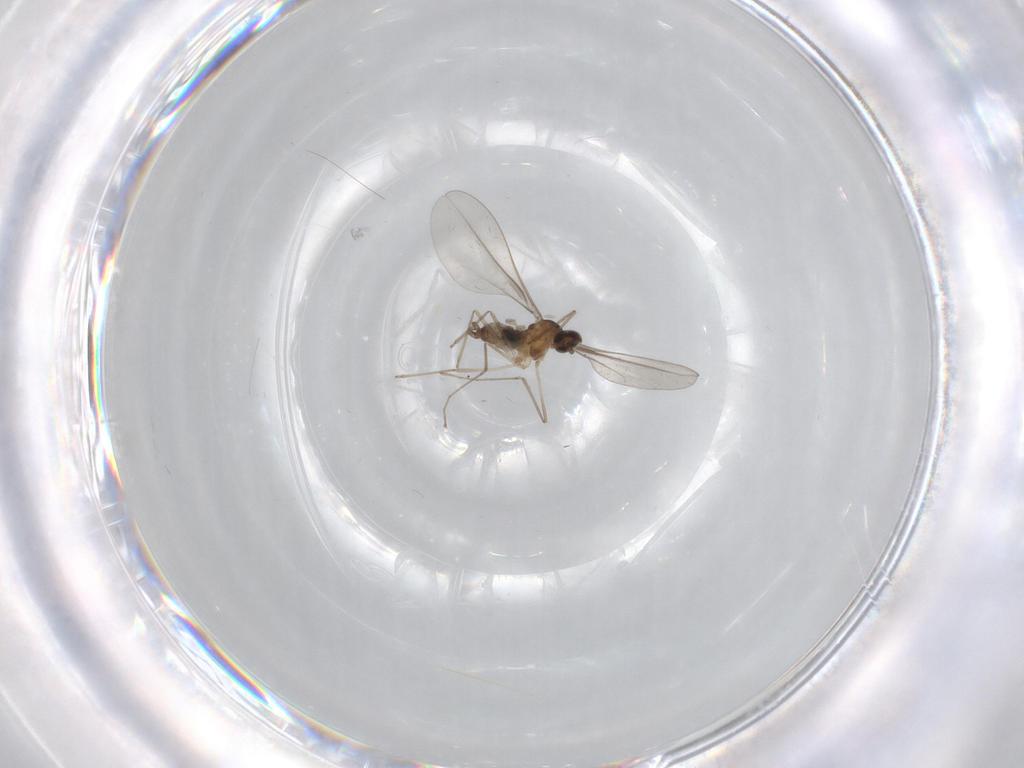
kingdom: Animalia
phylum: Arthropoda
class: Insecta
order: Diptera
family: Cecidomyiidae
